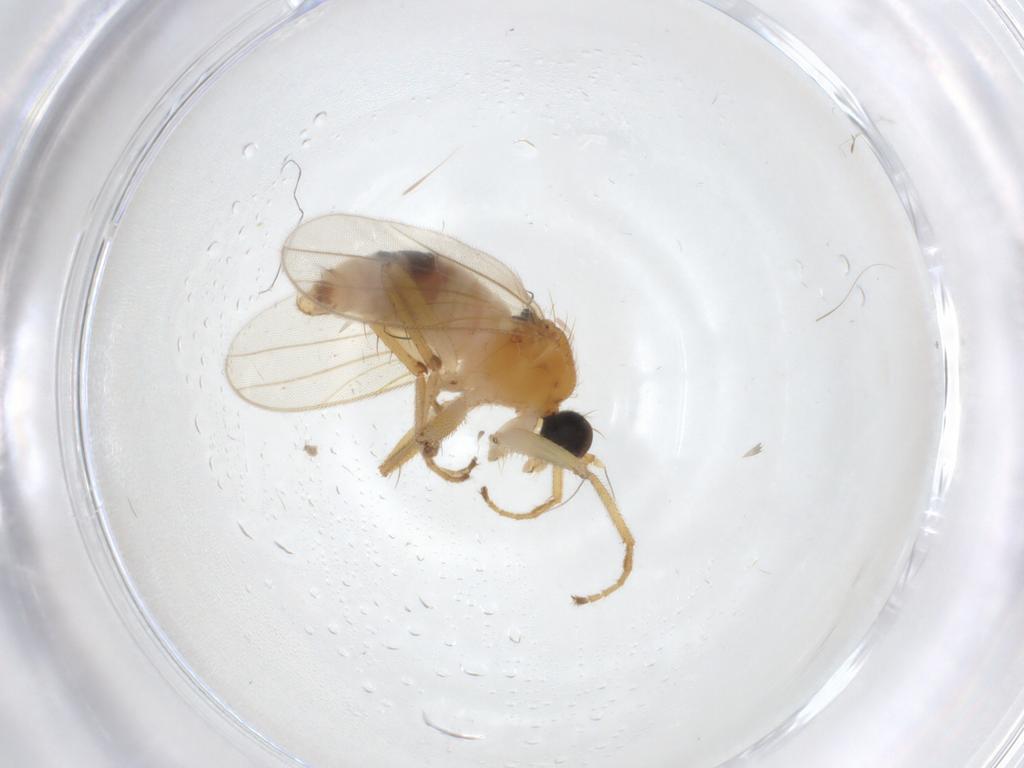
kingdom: Animalia
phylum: Arthropoda
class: Insecta
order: Diptera
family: Hybotidae
